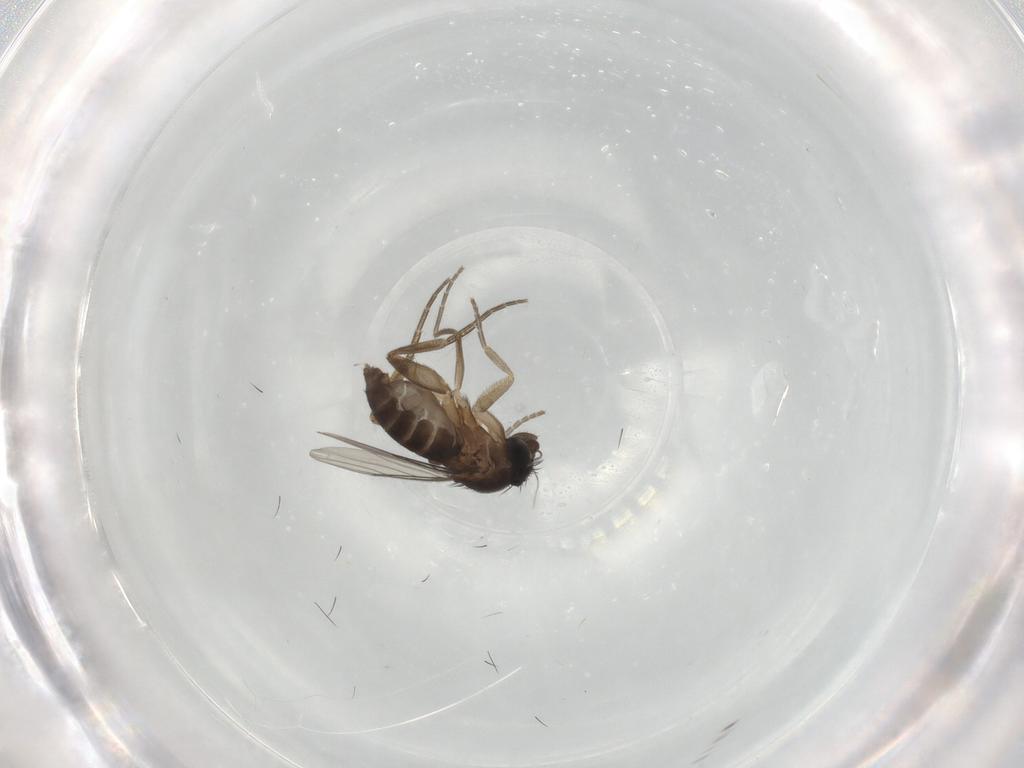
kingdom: Animalia
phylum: Arthropoda
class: Insecta
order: Diptera
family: Phoridae
